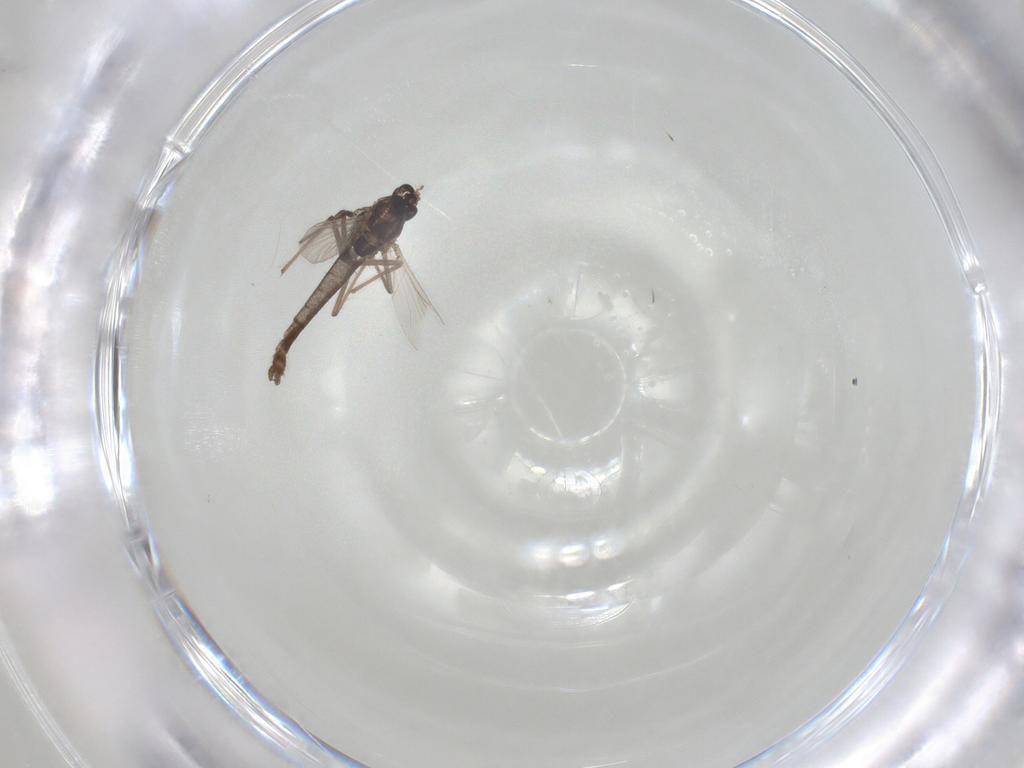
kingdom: Animalia
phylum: Arthropoda
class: Insecta
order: Diptera
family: Chironomidae
